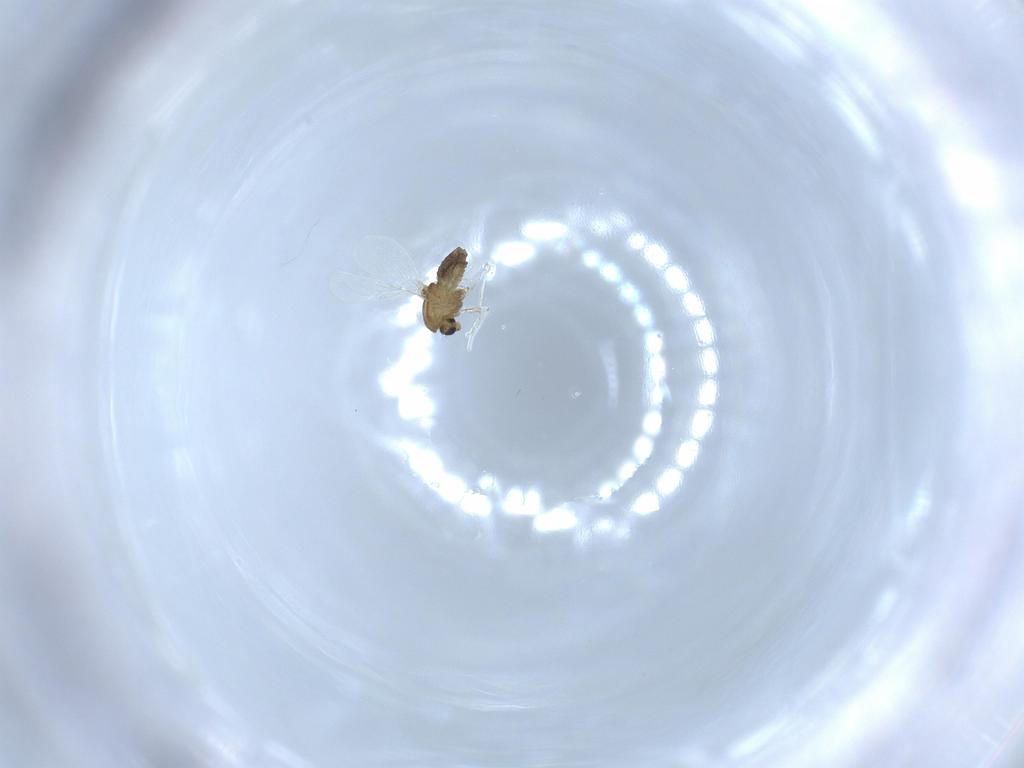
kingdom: Animalia
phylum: Arthropoda
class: Insecta
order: Diptera
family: Chironomidae
